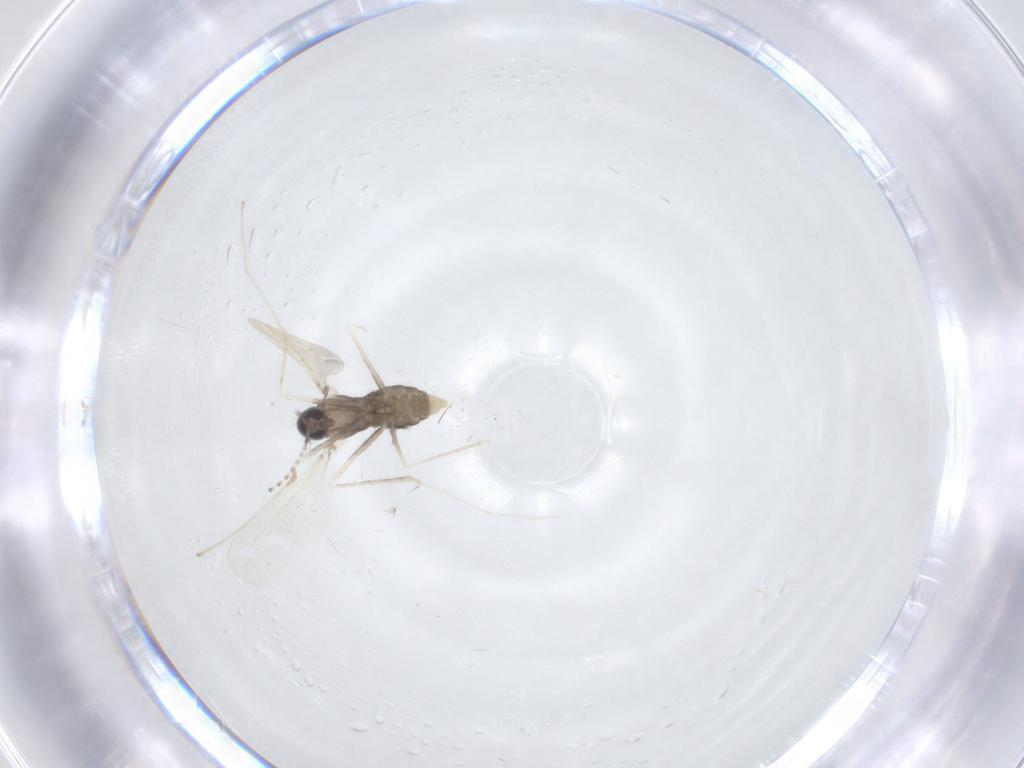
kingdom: Animalia
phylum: Arthropoda
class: Insecta
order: Diptera
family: Cecidomyiidae
